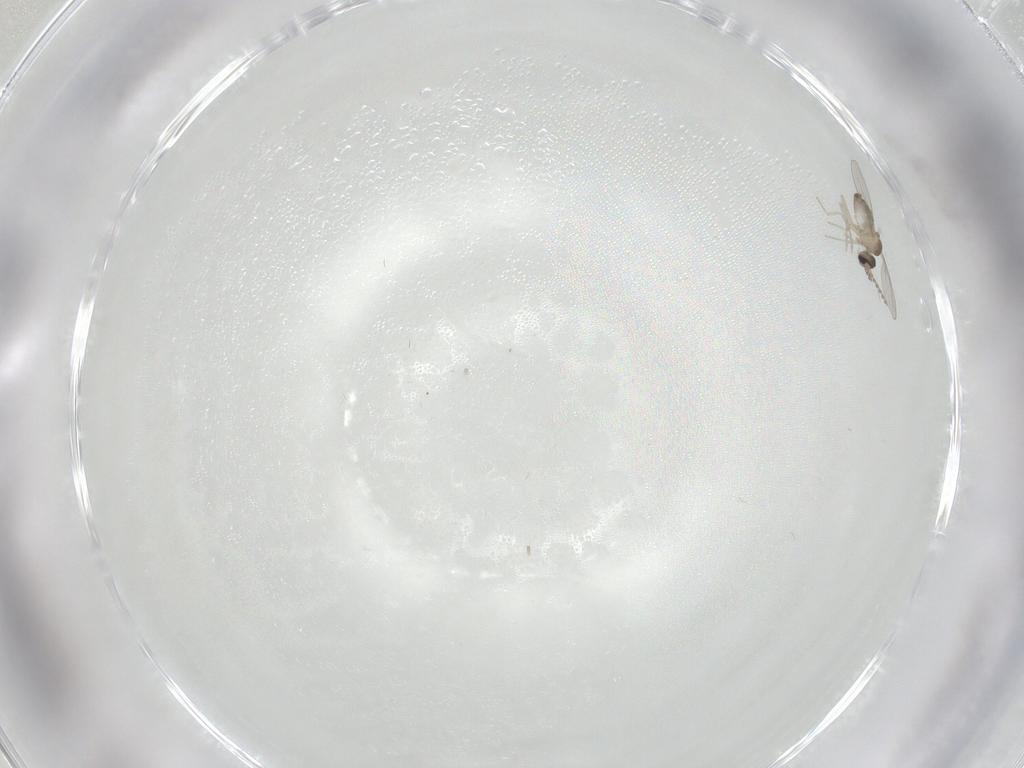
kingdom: Animalia
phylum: Arthropoda
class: Insecta
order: Diptera
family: Cecidomyiidae
